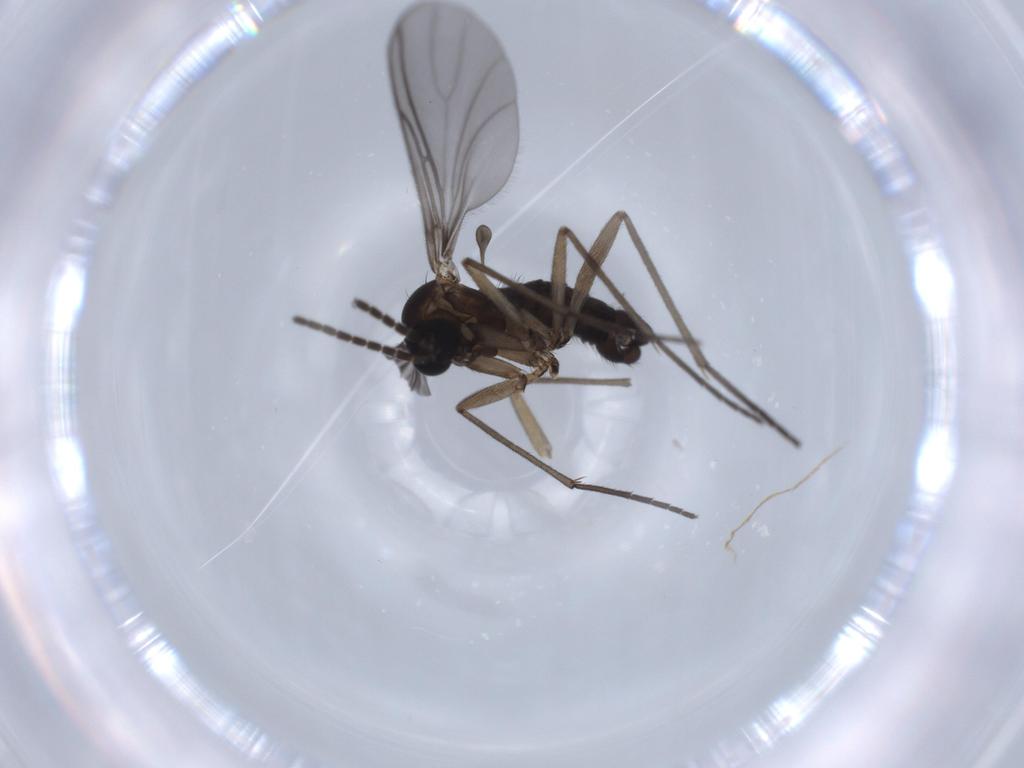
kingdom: Animalia
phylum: Arthropoda
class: Insecta
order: Diptera
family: Sciaridae
